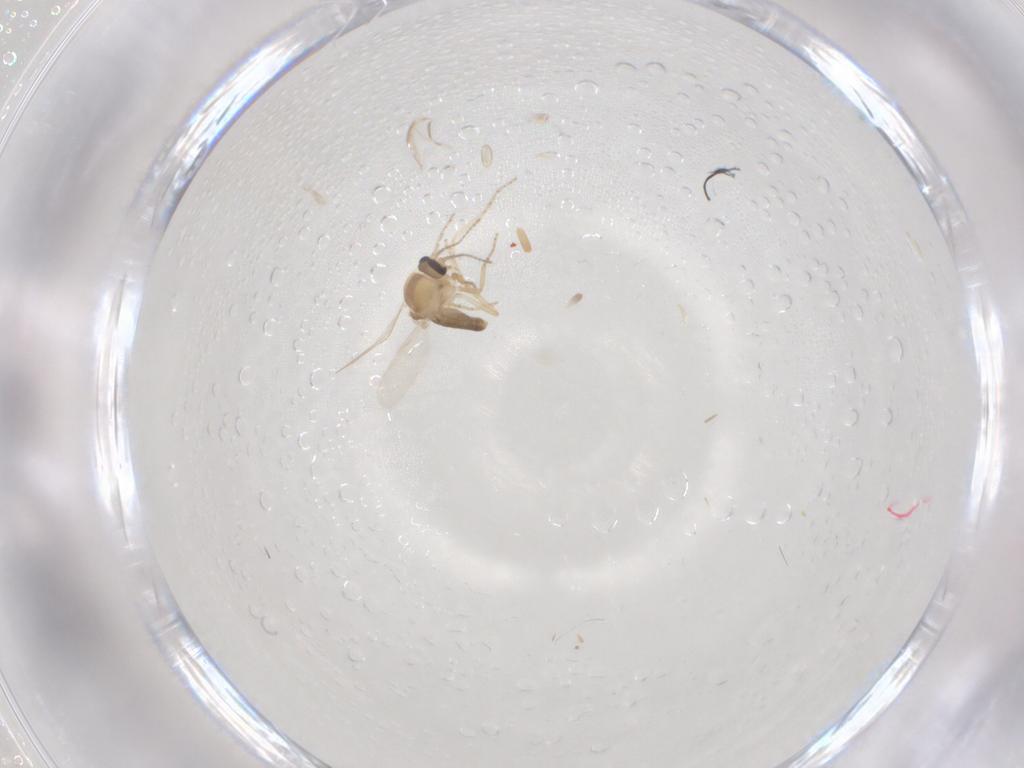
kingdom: Animalia
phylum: Arthropoda
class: Insecta
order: Diptera
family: Ceratopogonidae
